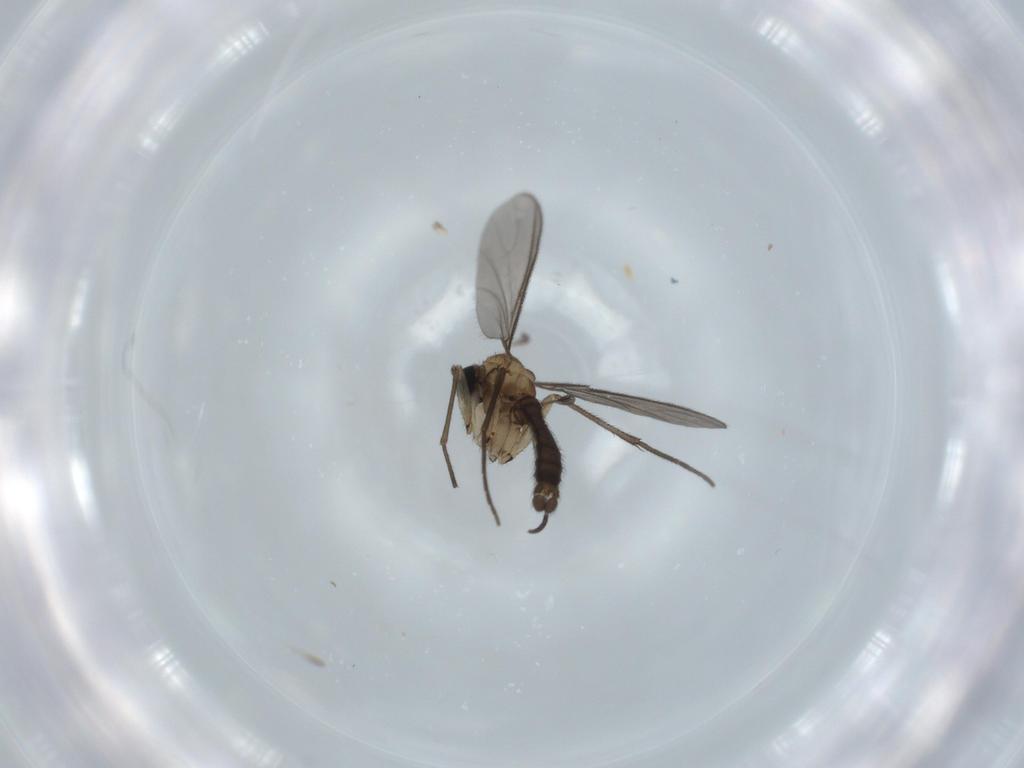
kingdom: Animalia
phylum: Arthropoda
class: Insecta
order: Diptera
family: Sciaridae
